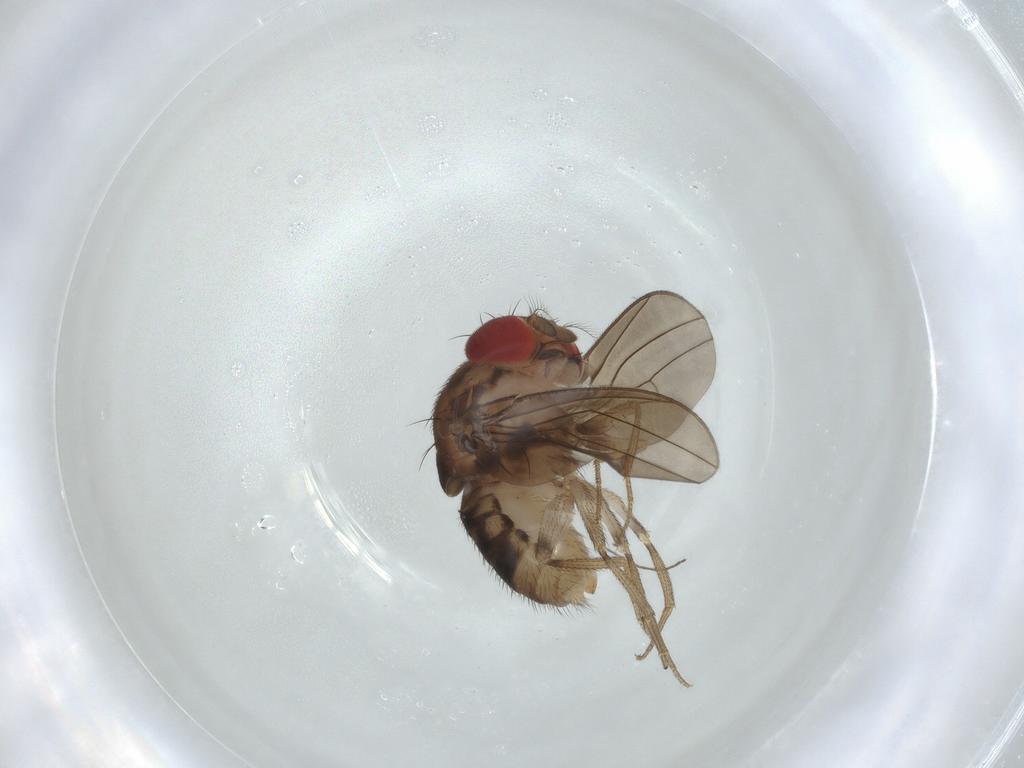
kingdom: Animalia
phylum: Arthropoda
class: Insecta
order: Diptera
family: Drosophilidae
